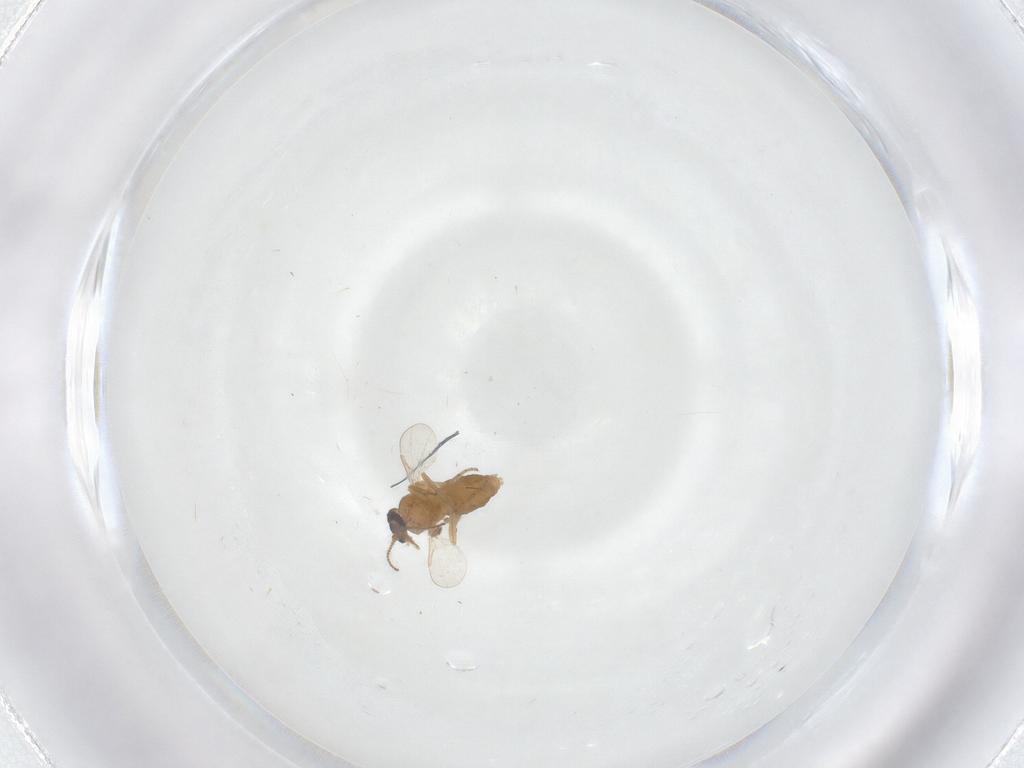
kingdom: Animalia
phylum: Arthropoda
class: Insecta
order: Diptera
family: Ceratopogonidae
